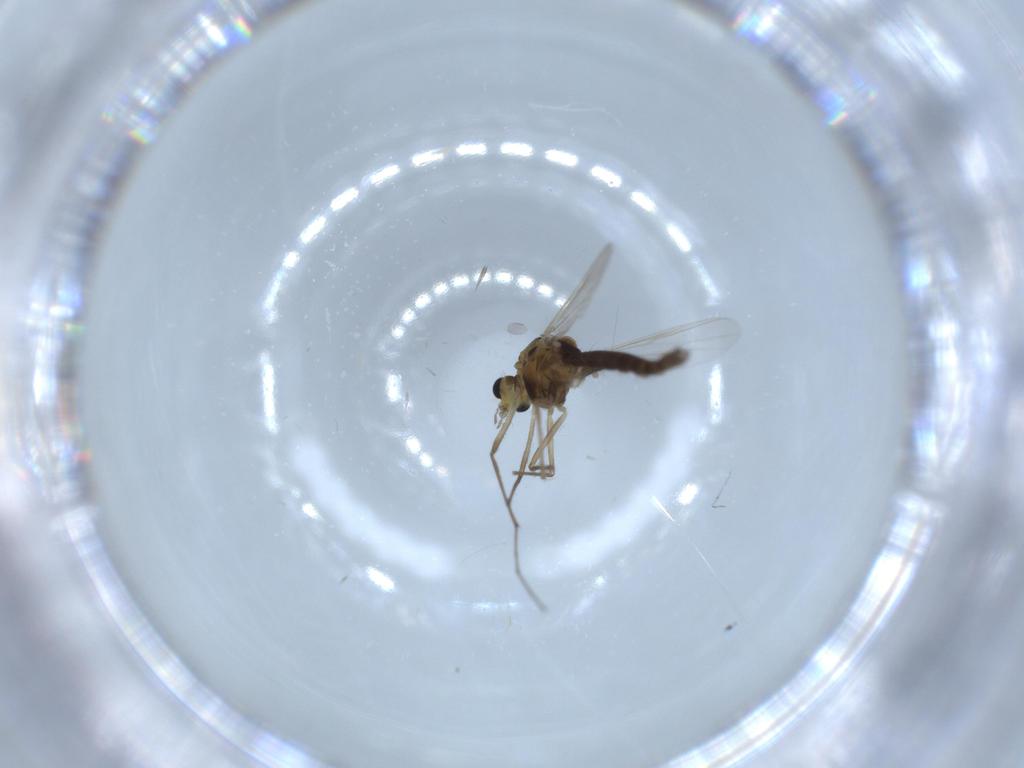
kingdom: Animalia
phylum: Arthropoda
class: Insecta
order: Diptera
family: Chironomidae
